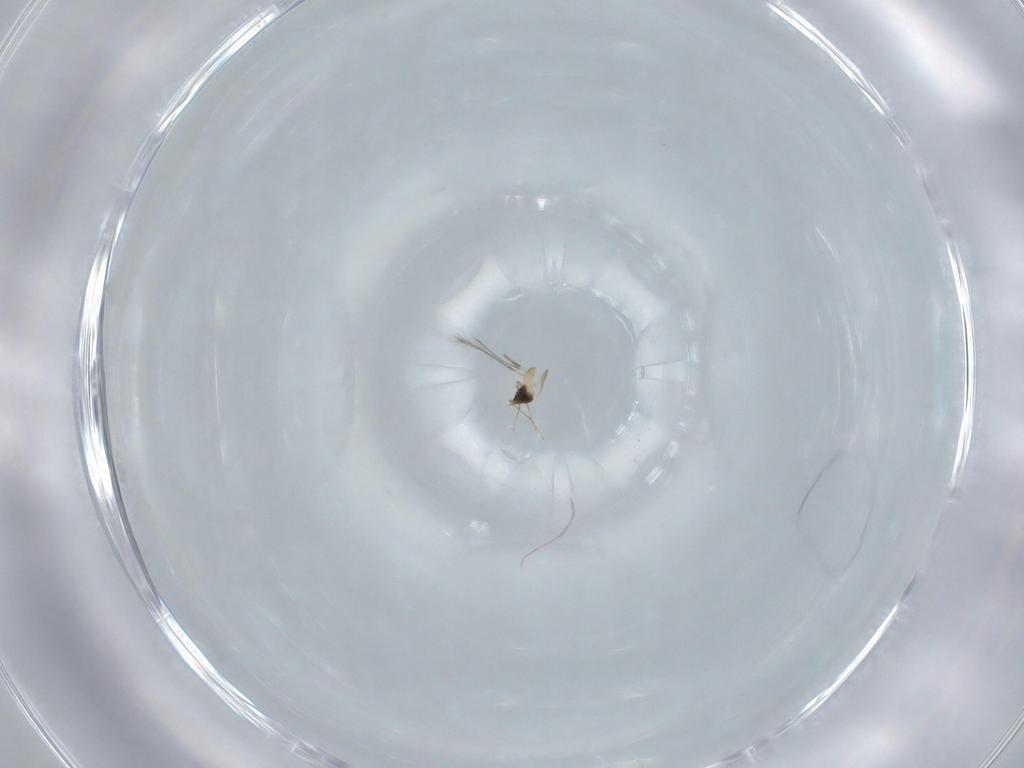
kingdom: Animalia
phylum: Arthropoda
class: Insecta
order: Hymenoptera
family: Mymaridae
